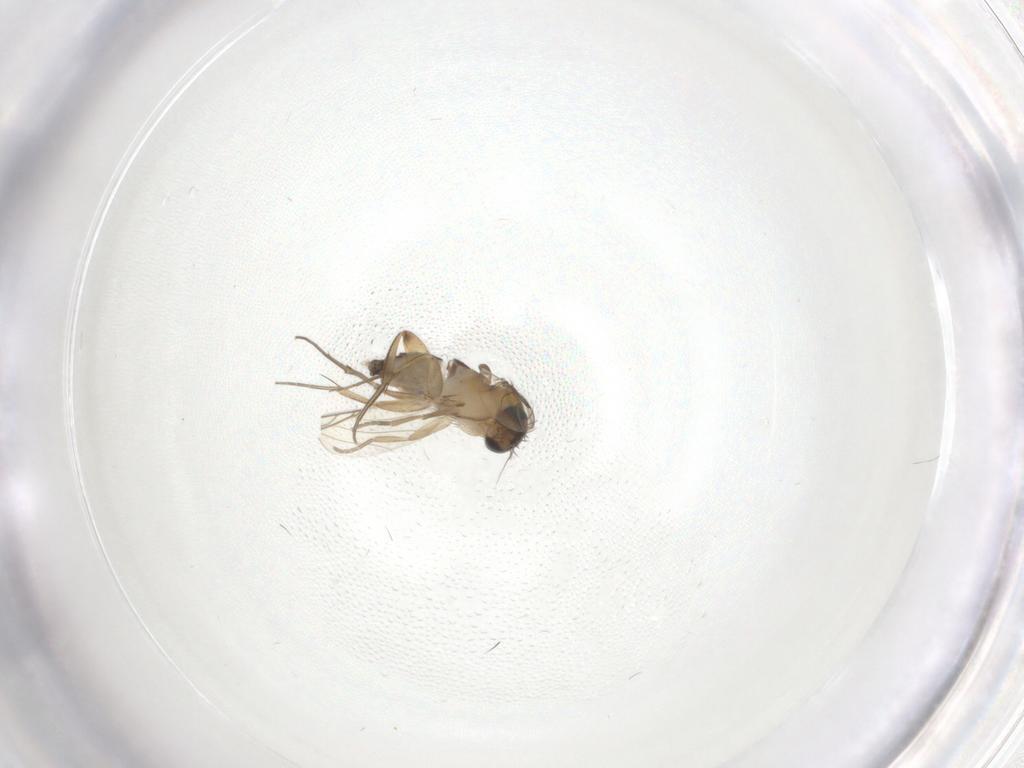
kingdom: Animalia
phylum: Arthropoda
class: Insecta
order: Diptera
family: Phoridae
